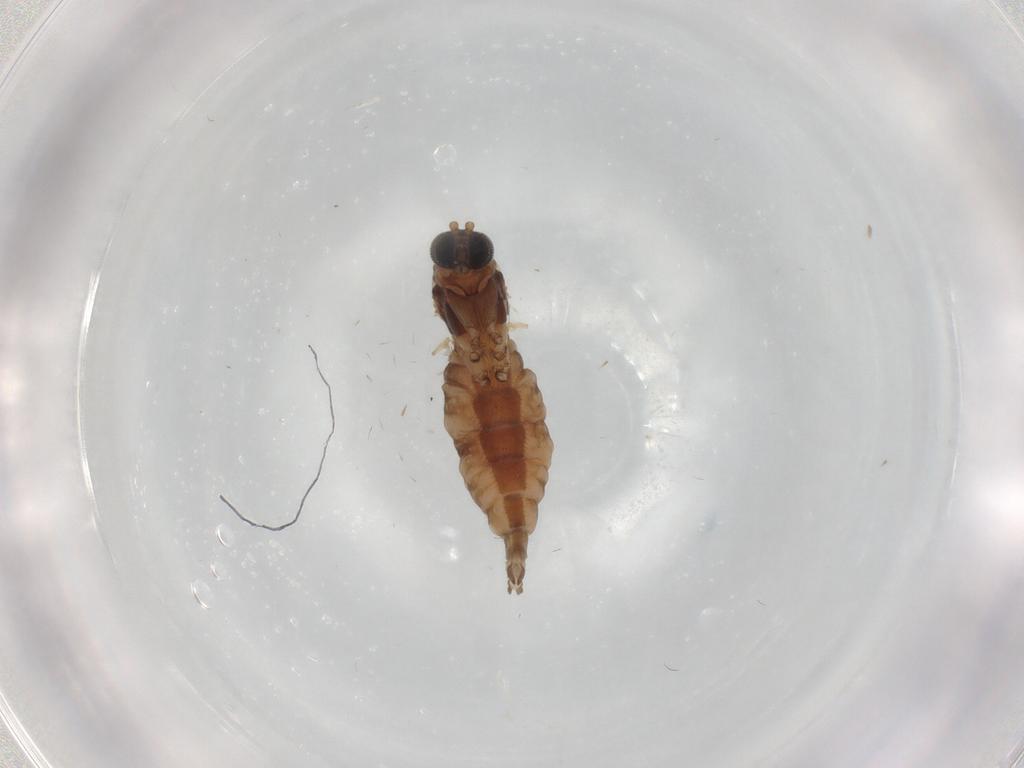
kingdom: Animalia
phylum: Arthropoda
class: Insecta
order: Diptera
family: Sciaridae
